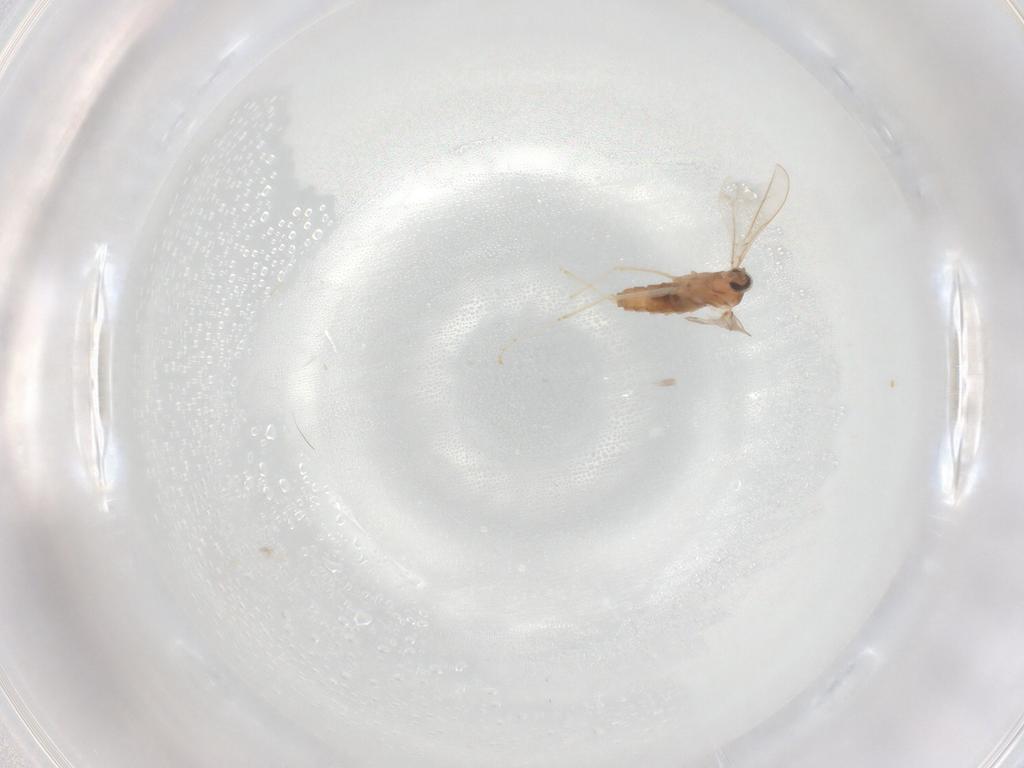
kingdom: Animalia
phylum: Arthropoda
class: Insecta
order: Diptera
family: Cecidomyiidae
